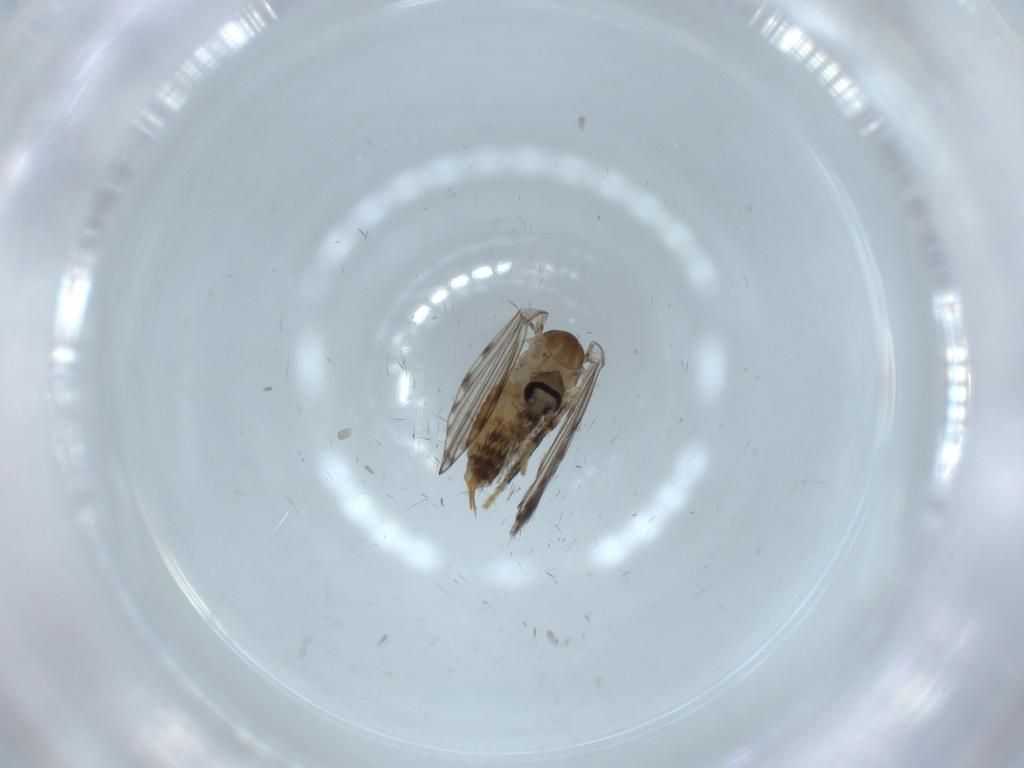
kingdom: Animalia
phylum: Arthropoda
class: Insecta
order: Diptera
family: Psychodidae
